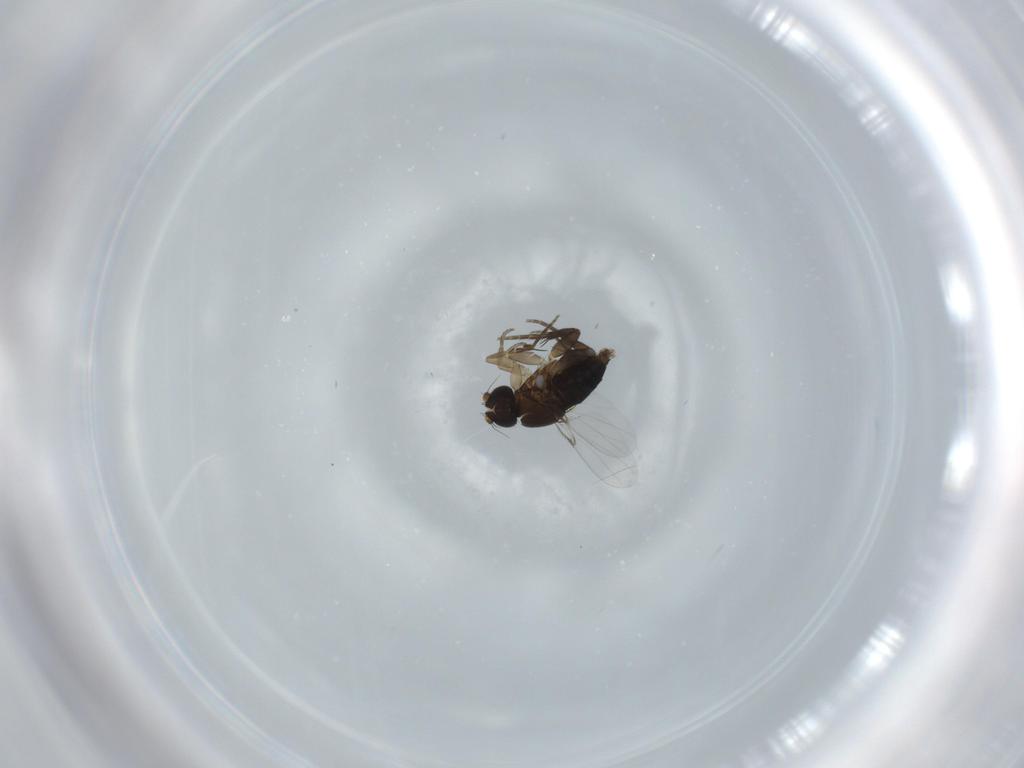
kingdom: Animalia
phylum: Arthropoda
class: Insecta
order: Diptera
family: Phoridae
